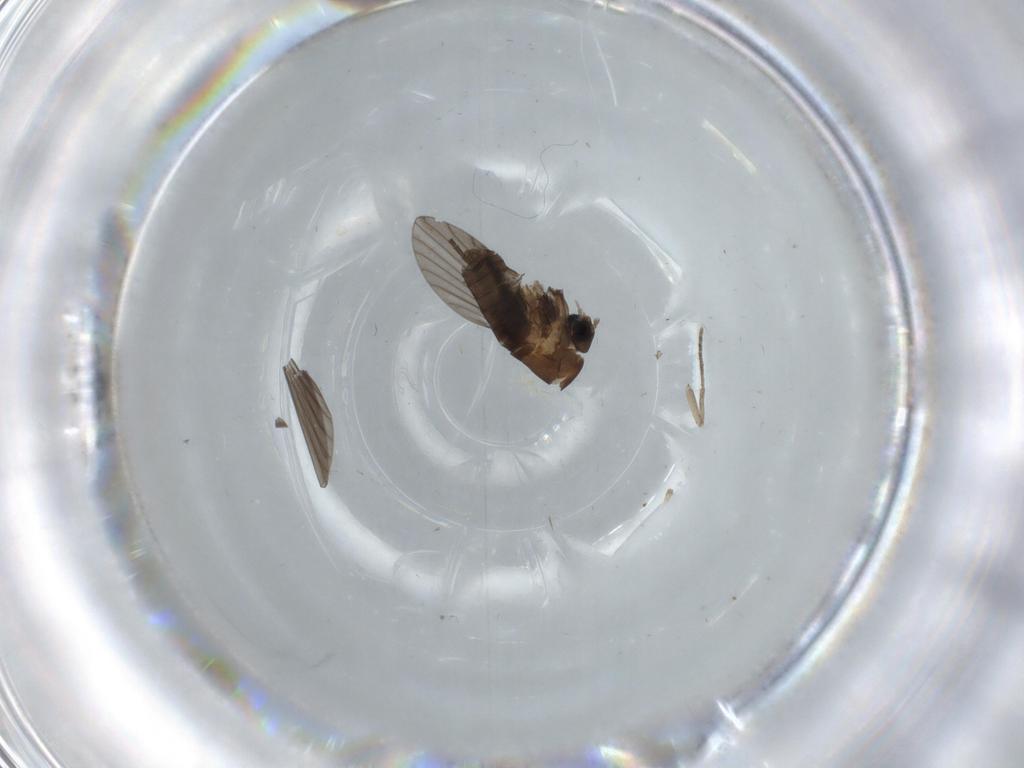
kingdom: Animalia
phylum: Arthropoda
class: Insecta
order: Diptera
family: Psychodidae
